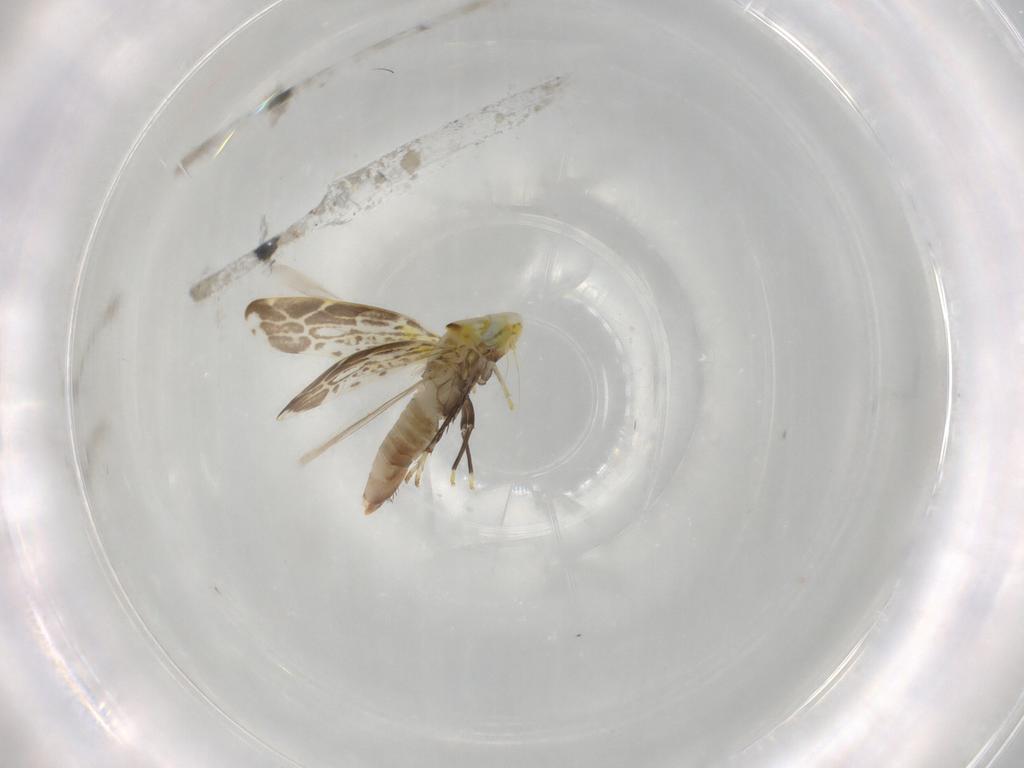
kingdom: Animalia
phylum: Arthropoda
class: Insecta
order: Hemiptera
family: Cicadellidae
